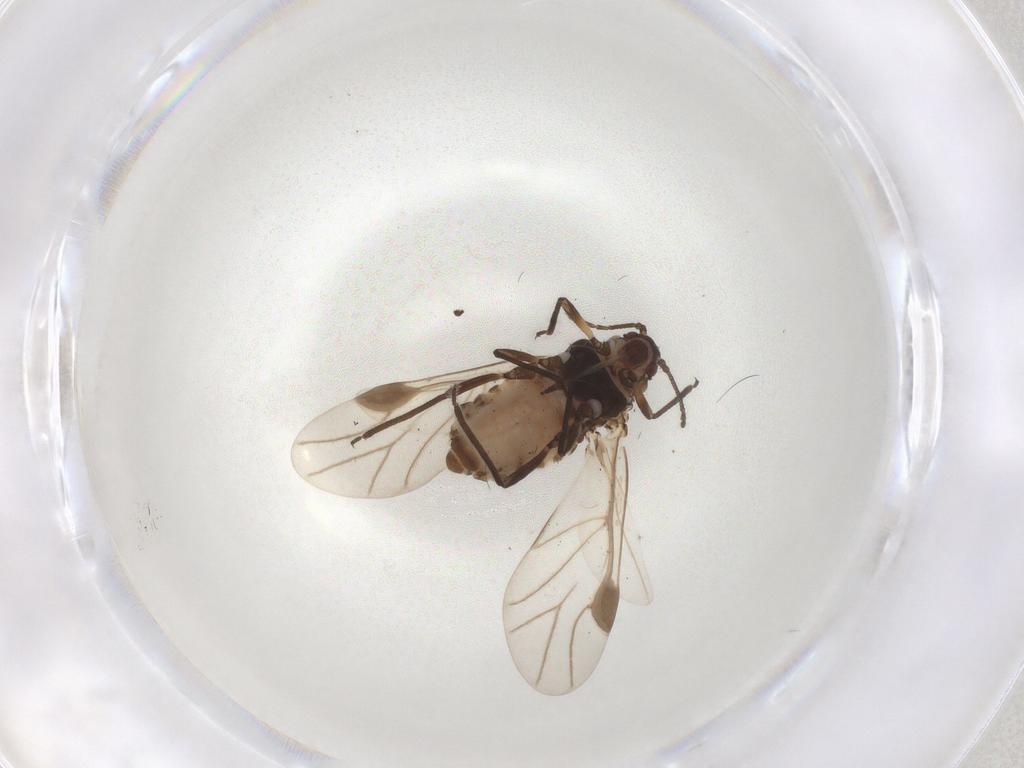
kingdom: Animalia
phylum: Arthropoda
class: Insecta
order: Hemiptera
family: Aphididae
